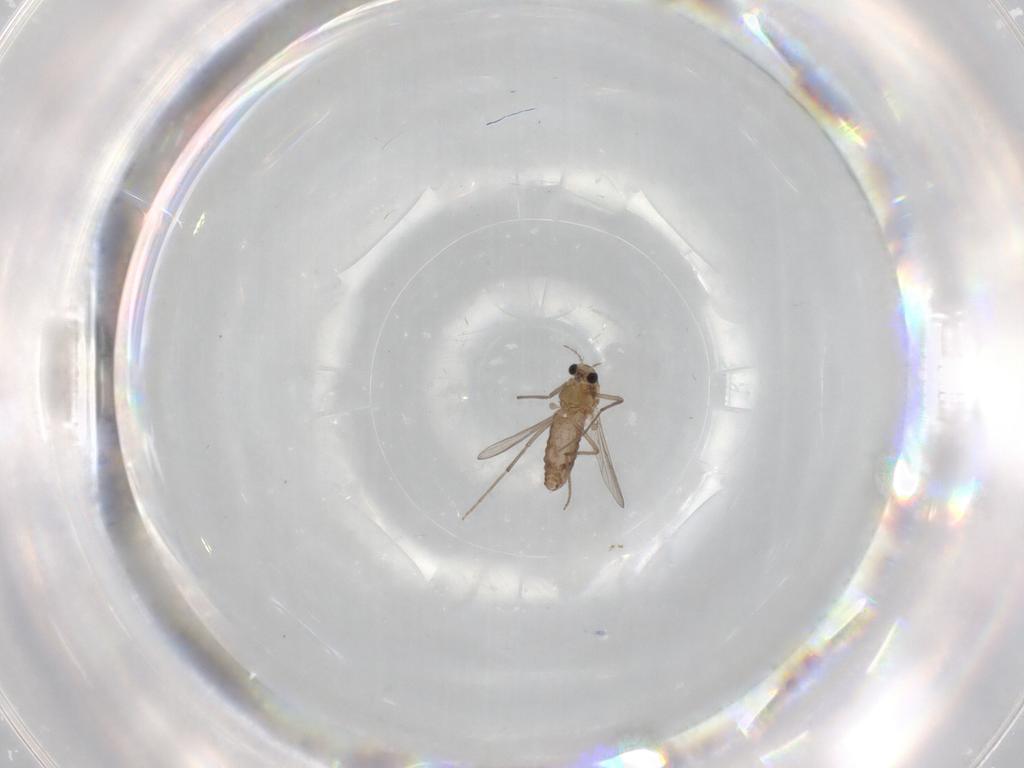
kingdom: Animalia
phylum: Arthropoda
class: Insecta
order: Diptera
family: Chironomidae
